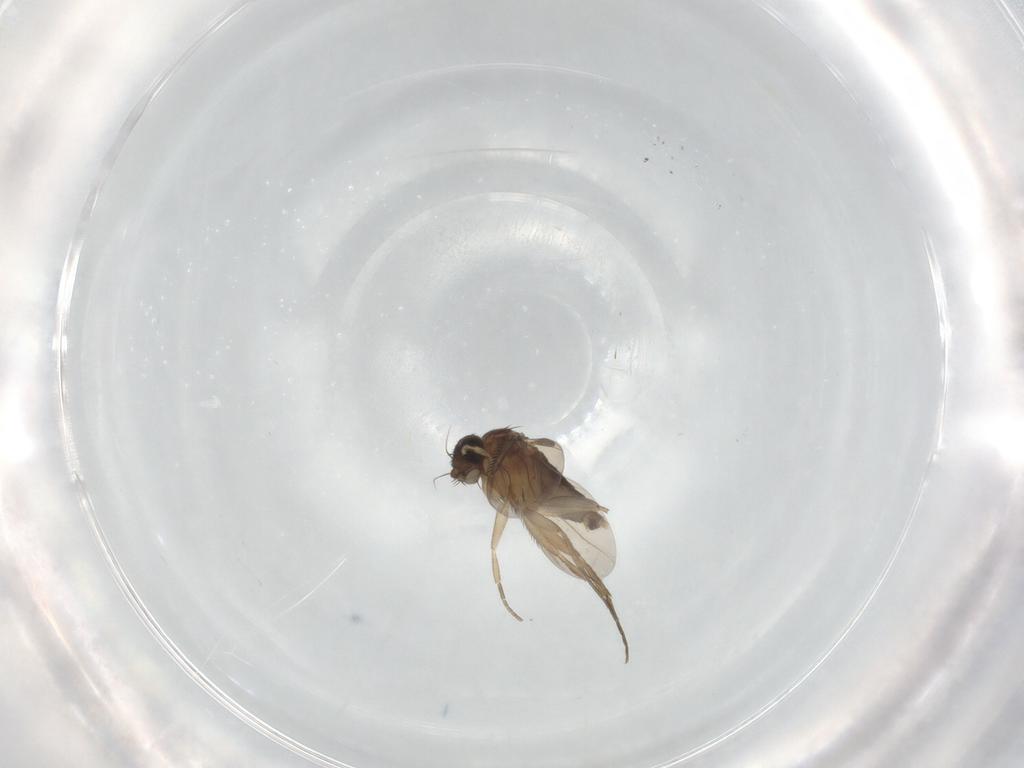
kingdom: Animalia
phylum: Arthropoda
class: Insecta
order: Diptera
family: Phoridae
